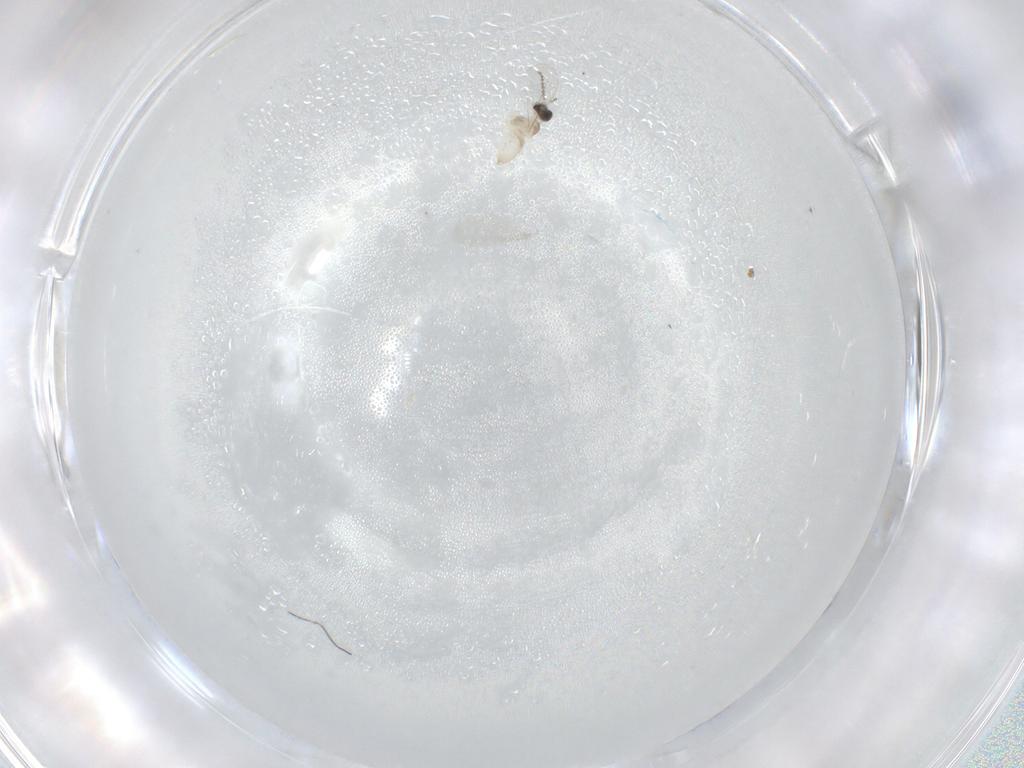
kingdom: Animalia
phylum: Arthropoda
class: Insecta
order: Diptera
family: Cecidomyiidae
